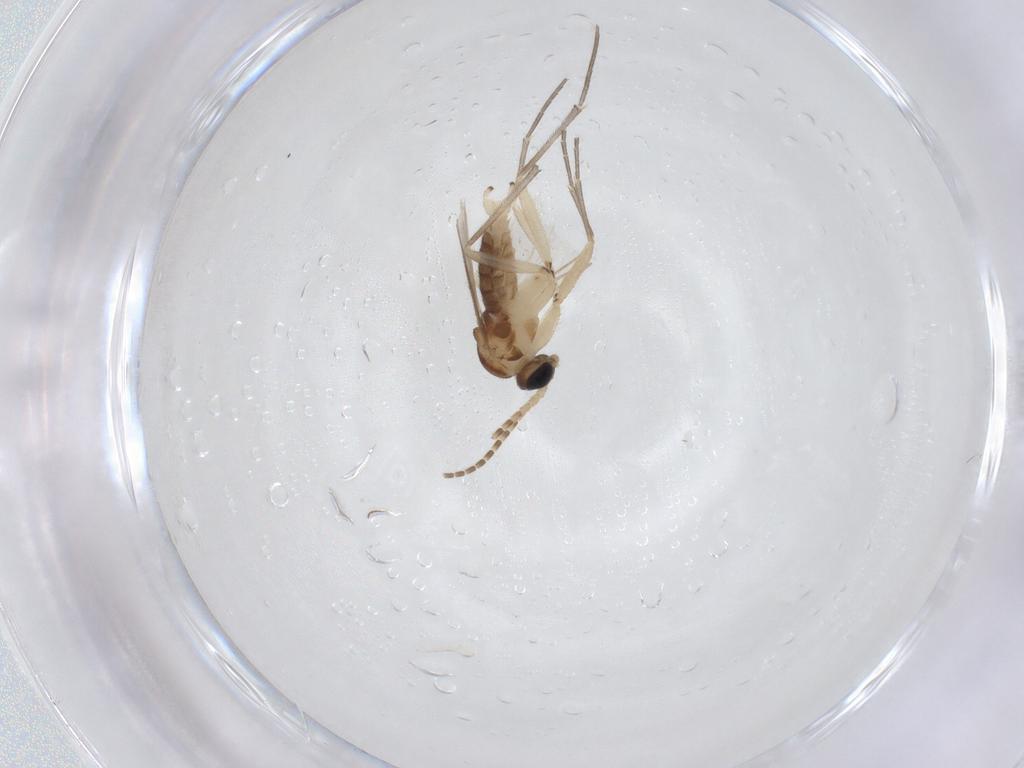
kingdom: Animalia
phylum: Arthropoda
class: Insecta
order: Diptera
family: Sciaridae
